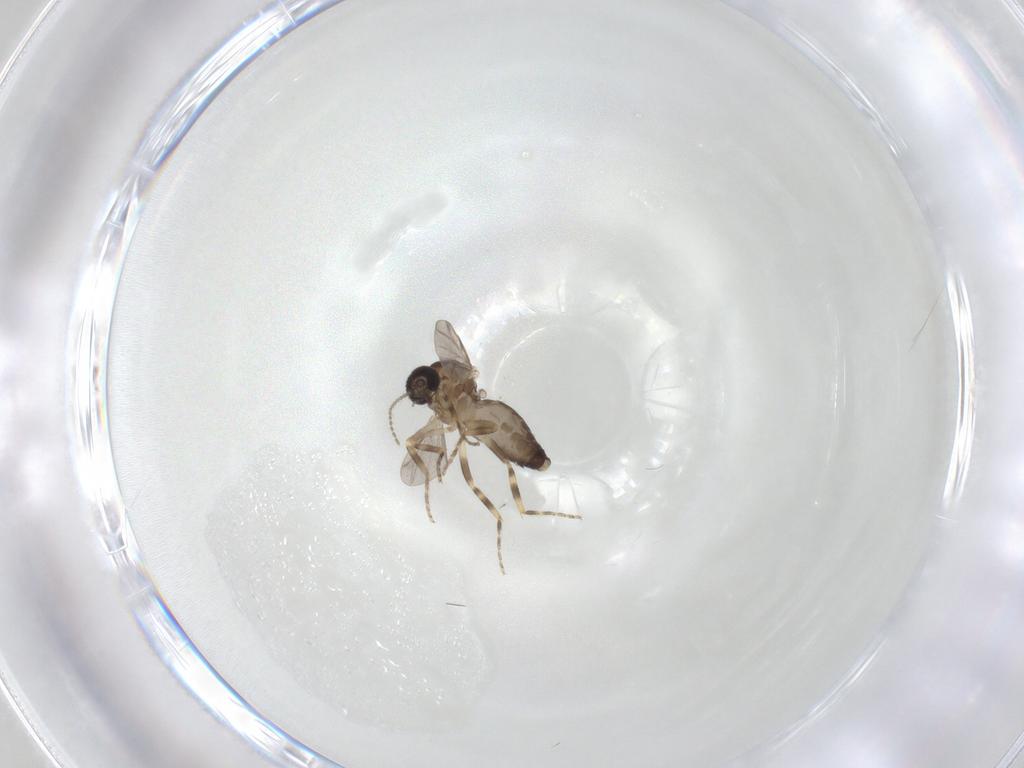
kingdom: Animalia
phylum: Arthropoda
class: Insecta
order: Diptera
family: Ceratopogonidae
